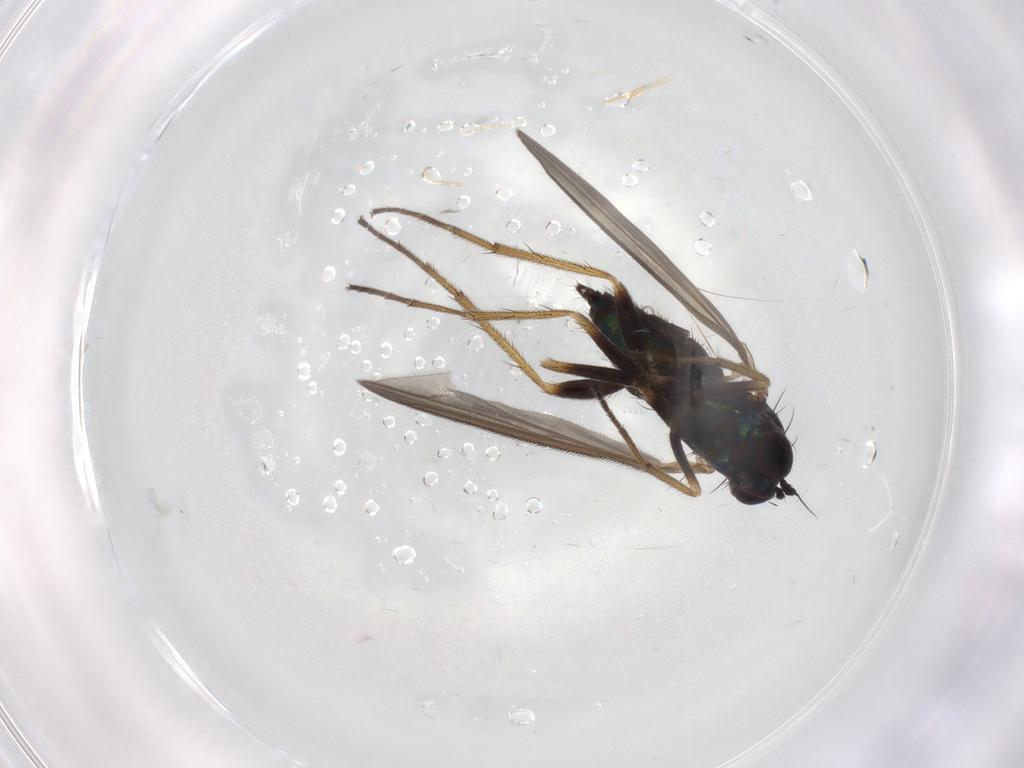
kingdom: Animalia
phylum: Arthropoda
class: Insecta
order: Diptera
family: Dolichopodidae
